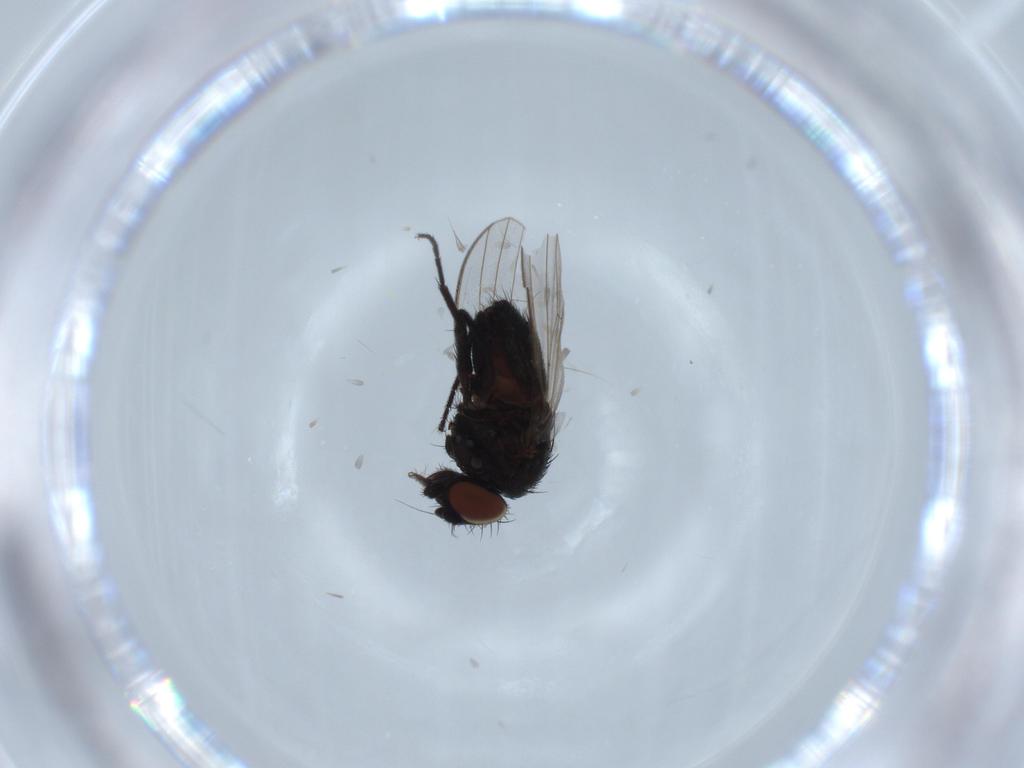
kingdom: Animalia
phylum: Arthropoda
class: Insecta
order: Diptera
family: Milichiidae
